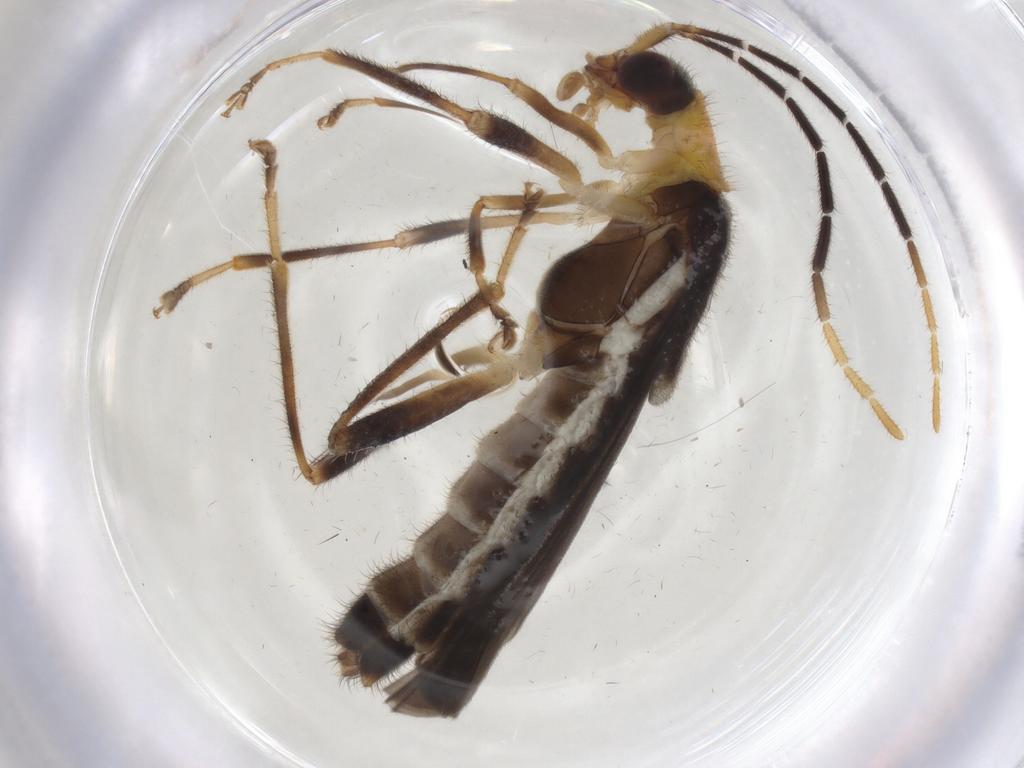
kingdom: Animalia
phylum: Arthropoda
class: Insecta
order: Coleoptera
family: Cantharidae
